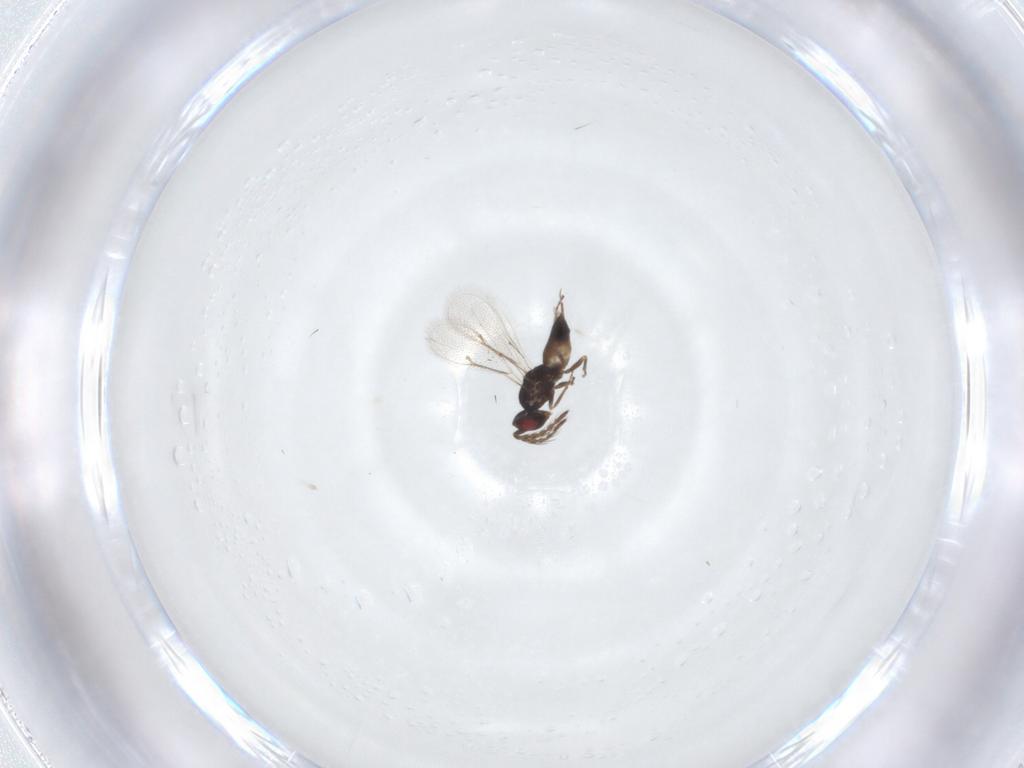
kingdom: Animalia
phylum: Arthropoda
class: Insecta
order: Hymenoptera
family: Eulophidae
